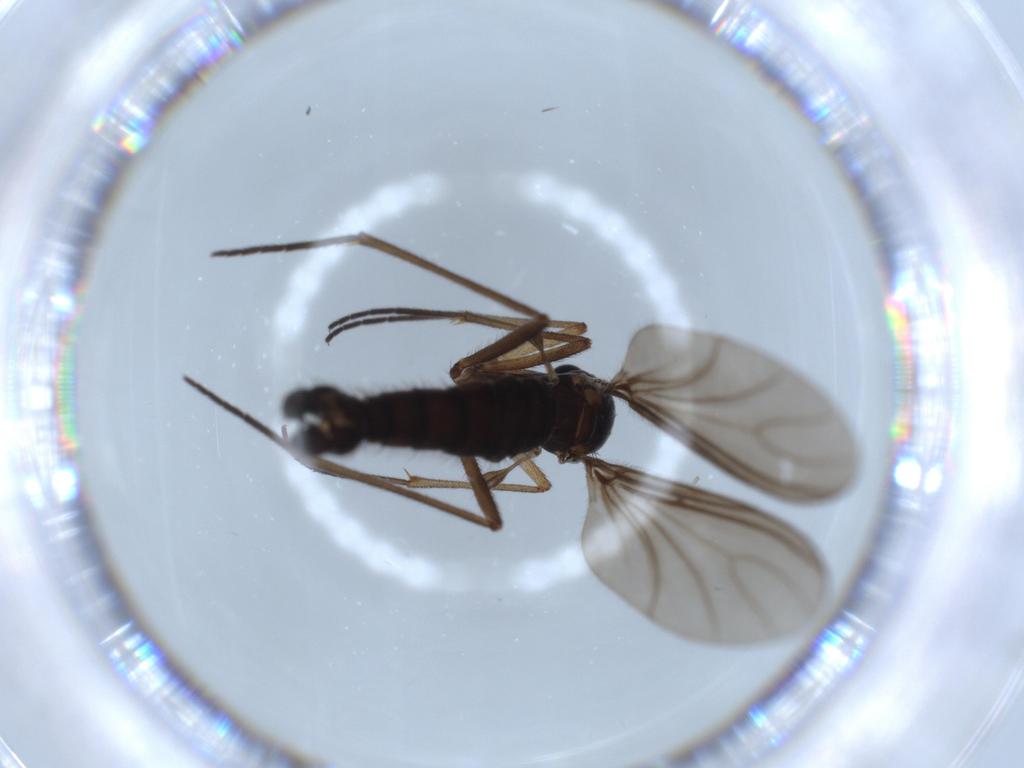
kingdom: Animalia
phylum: Arthropoda
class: Insecta
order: Diptera
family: Sciaridae
